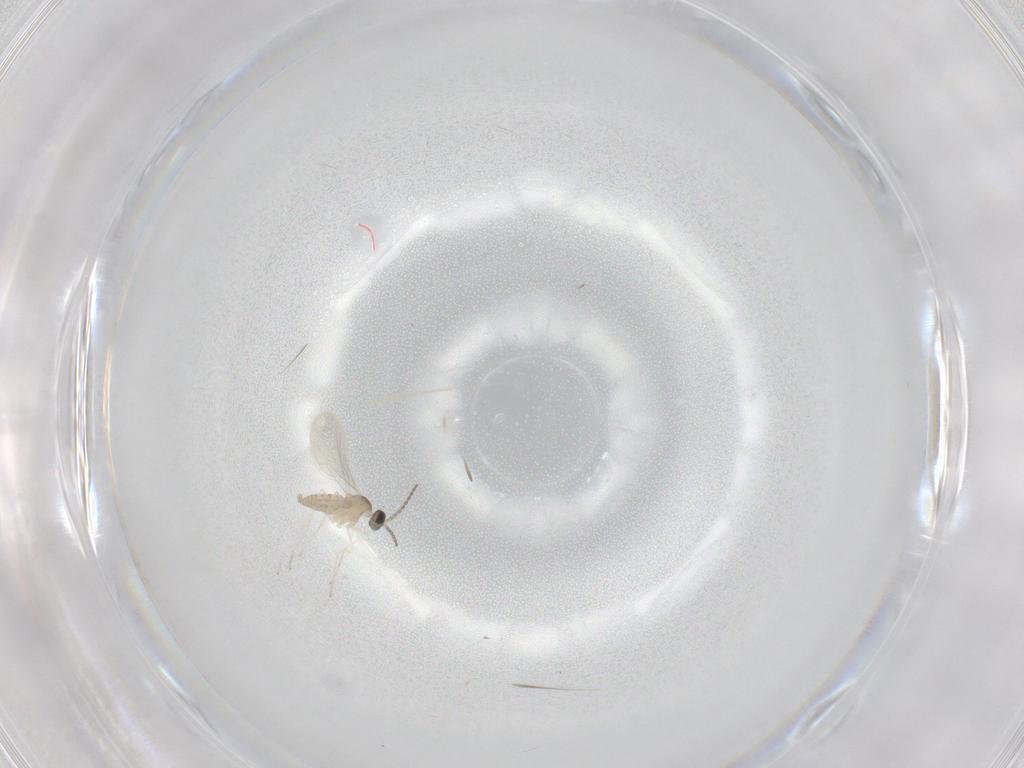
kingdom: Animalia
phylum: Arthropoda
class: Insecta
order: Diptera
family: Cecidomyiidae
